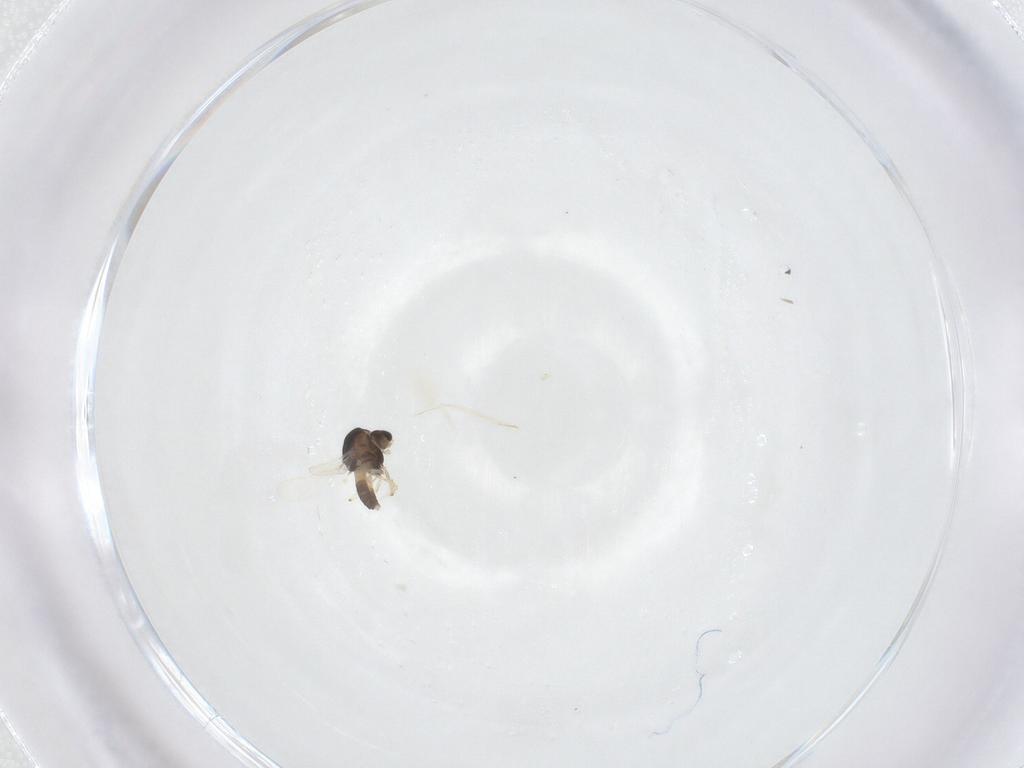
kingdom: Animalia
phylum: Arthropoda
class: Insecta
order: Diptera
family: Chironomidae
